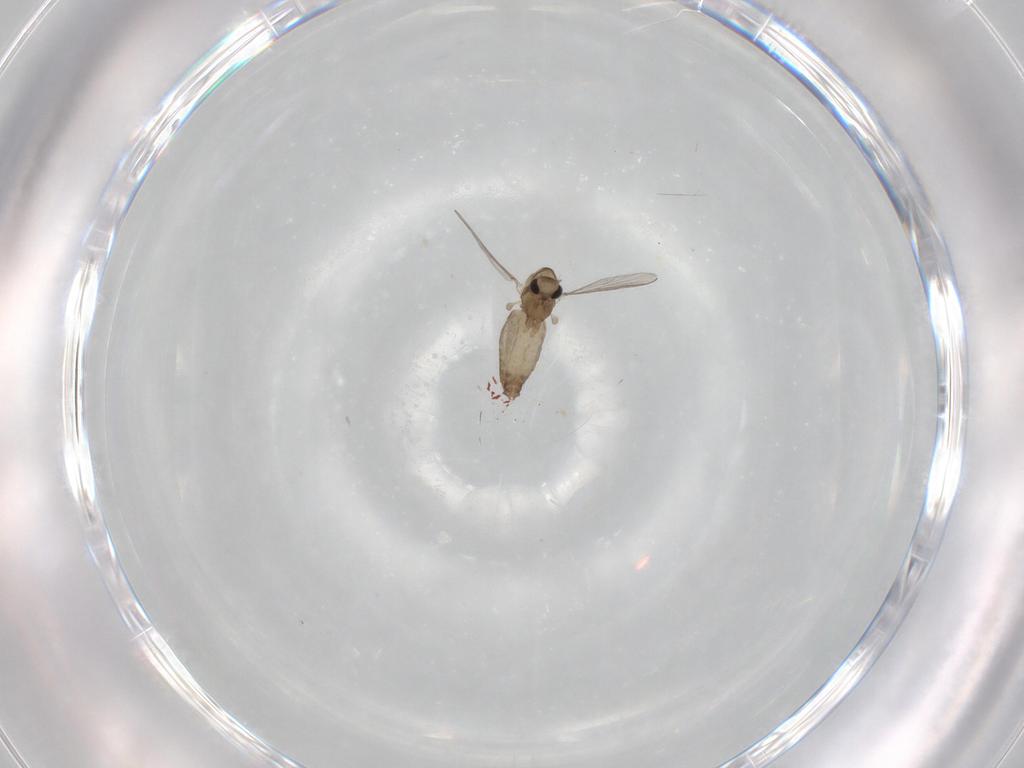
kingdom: Animalia
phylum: Arthropoda
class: Insecta
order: Diptera
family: Chironomidae
